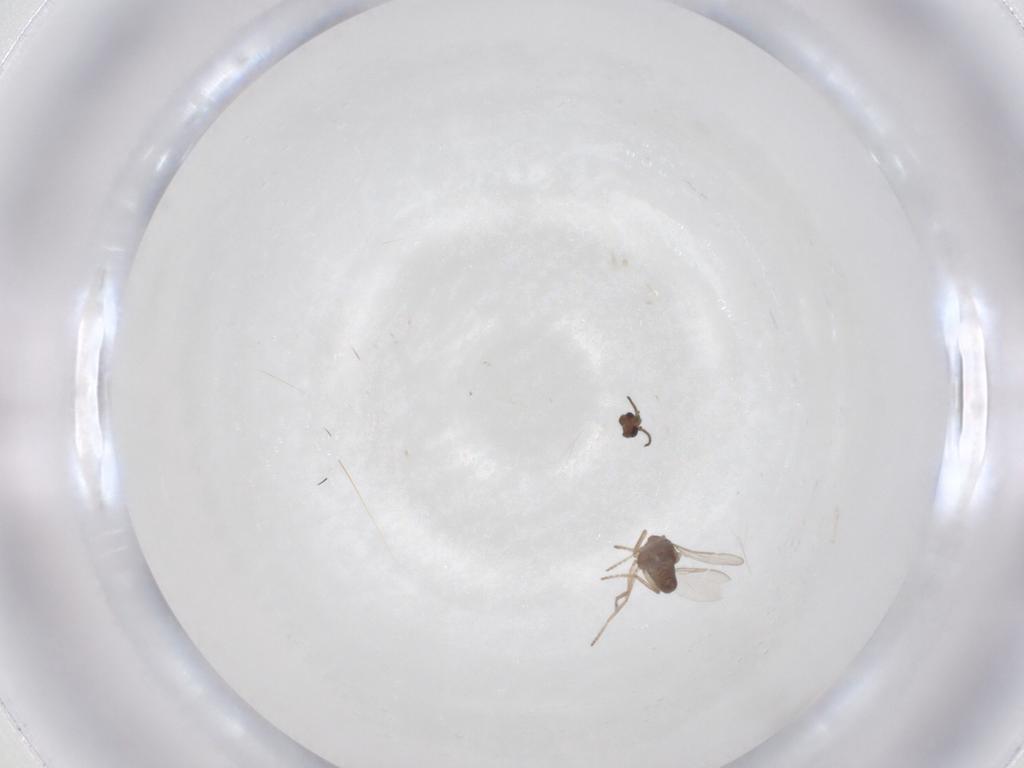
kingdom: Animalia
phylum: Arthropoda
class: Insecta
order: Diptera
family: Ceratopogonidae
